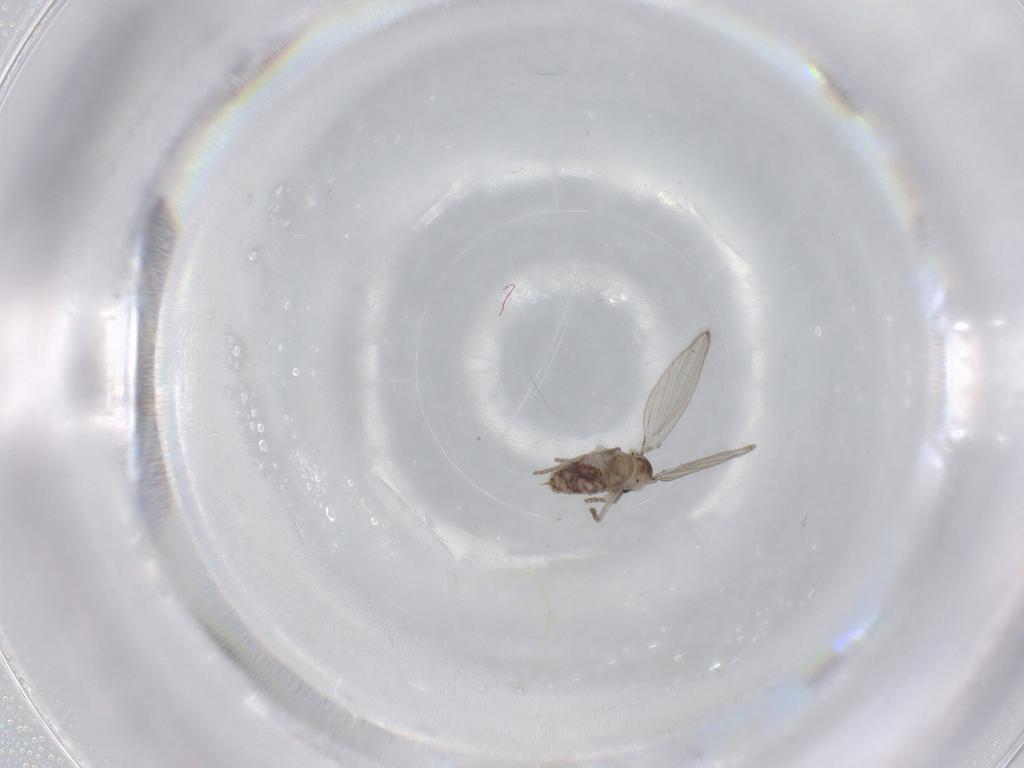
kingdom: Animalia
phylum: Arthropoda
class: Insecta
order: Diptera
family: Psychodidae
